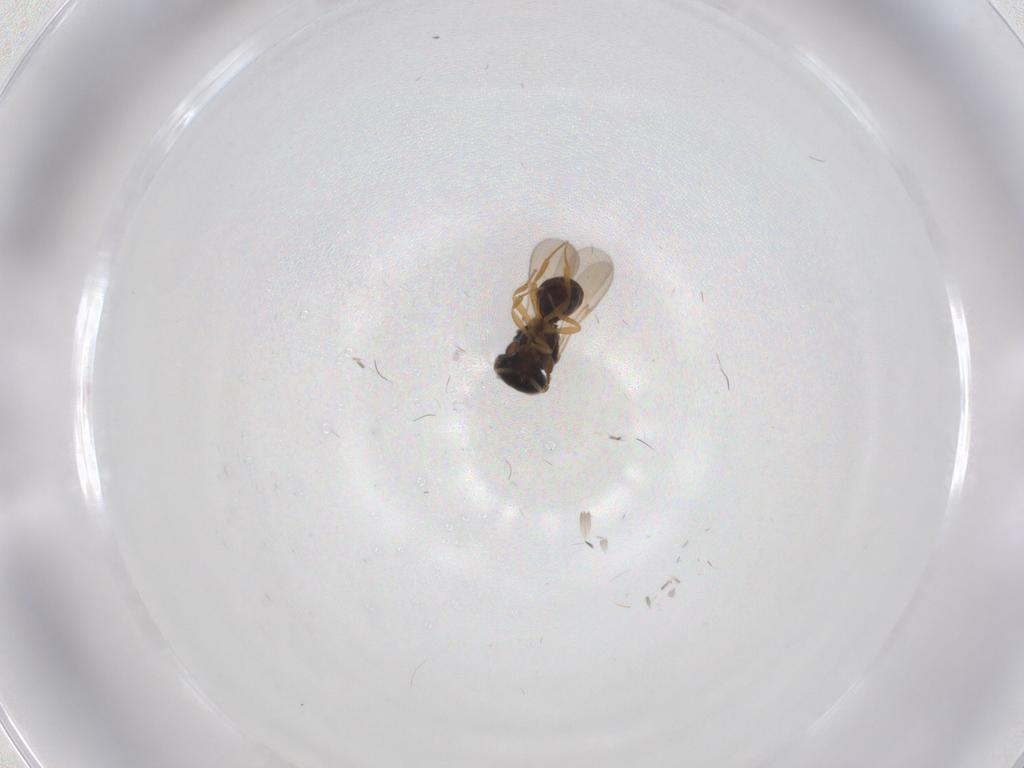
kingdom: Animalia
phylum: Arthropoda
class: Insecta
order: Hymenoptera
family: Scelionidae
